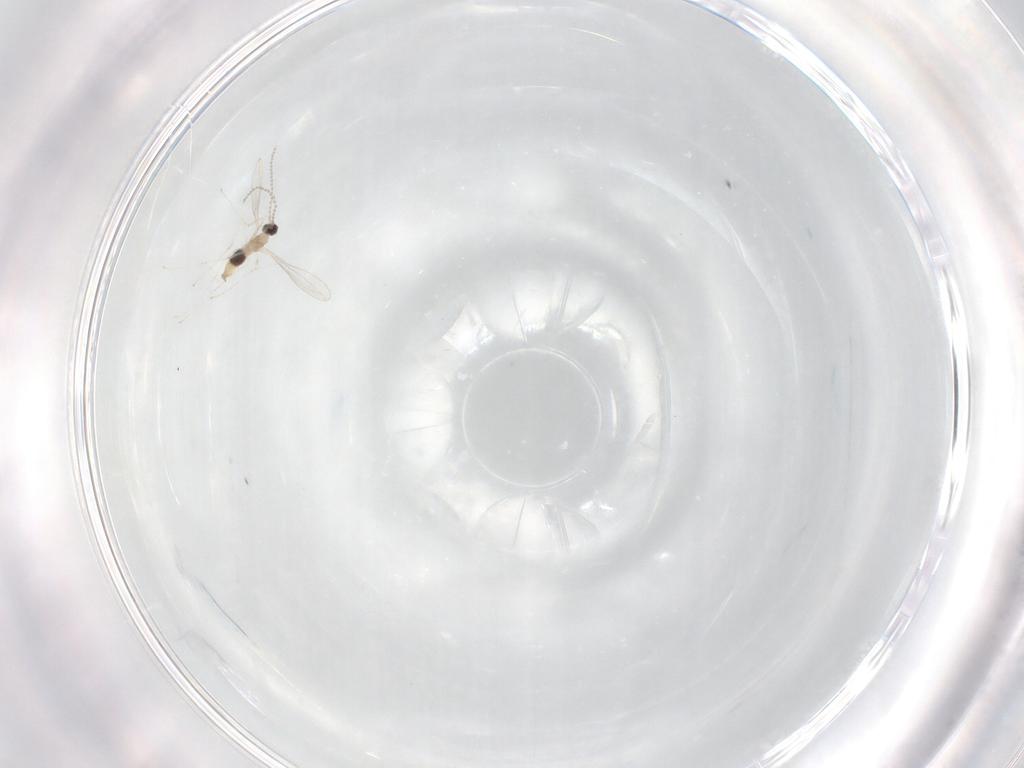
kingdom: Animalia
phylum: Arthropoda
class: Insecta
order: Diptera
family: Cecidomyiidae
